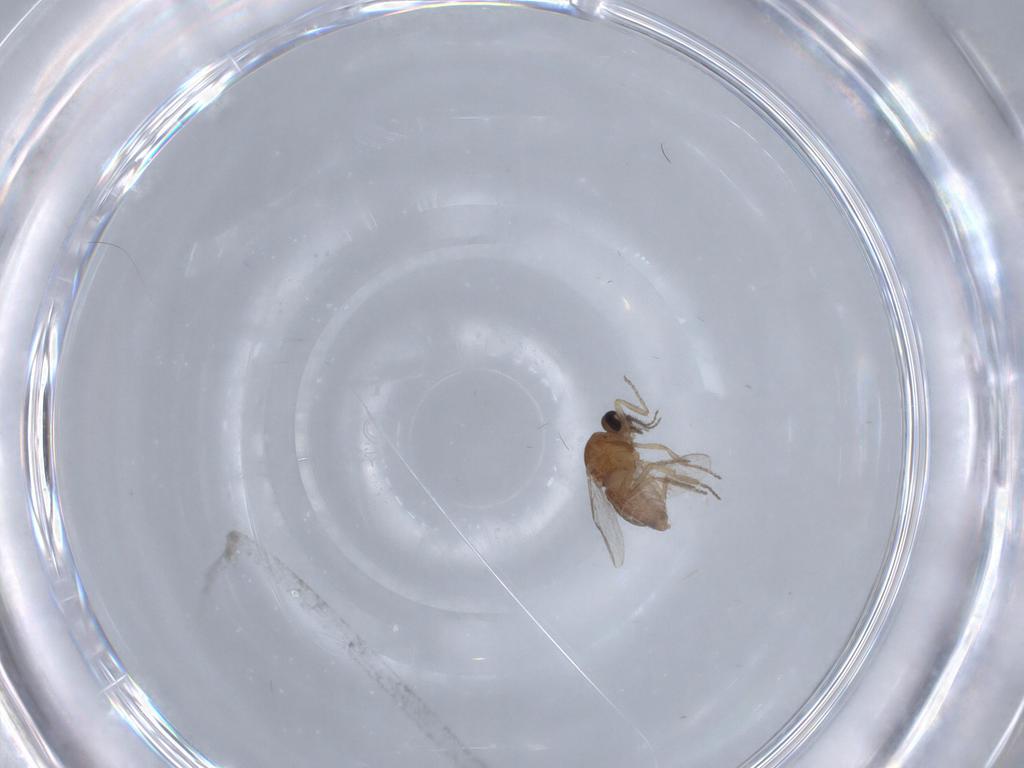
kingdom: Animalia
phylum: Arthropoda
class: Insecta
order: Diptera
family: Ceratopogonidae
